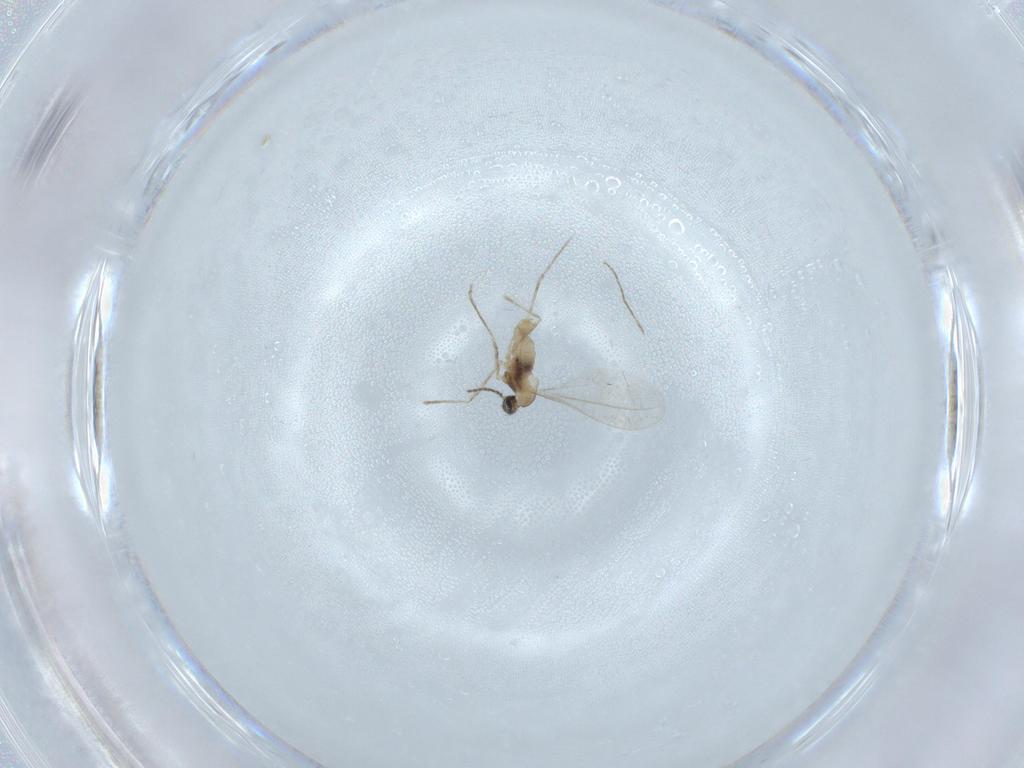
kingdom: Animalia
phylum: Arthropoda
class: Insecta
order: Diptera
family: Cecidomyiidae
